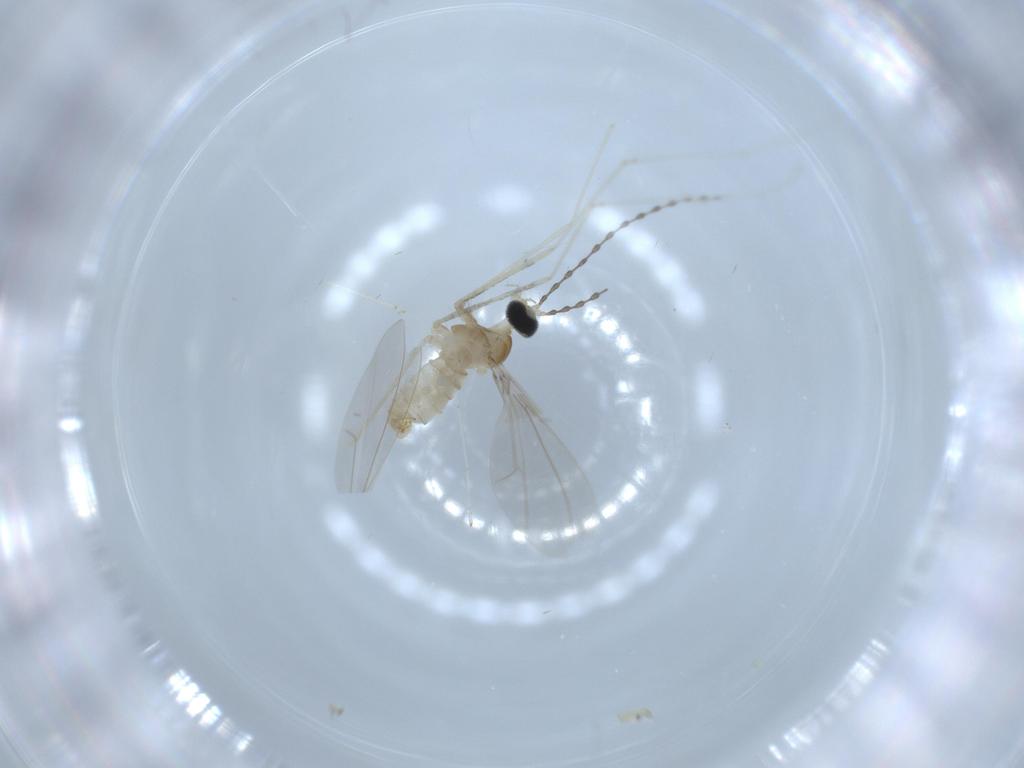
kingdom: Animalia
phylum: Arthropoda
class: Insecta
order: Diptera
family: Cecidomyiidae
